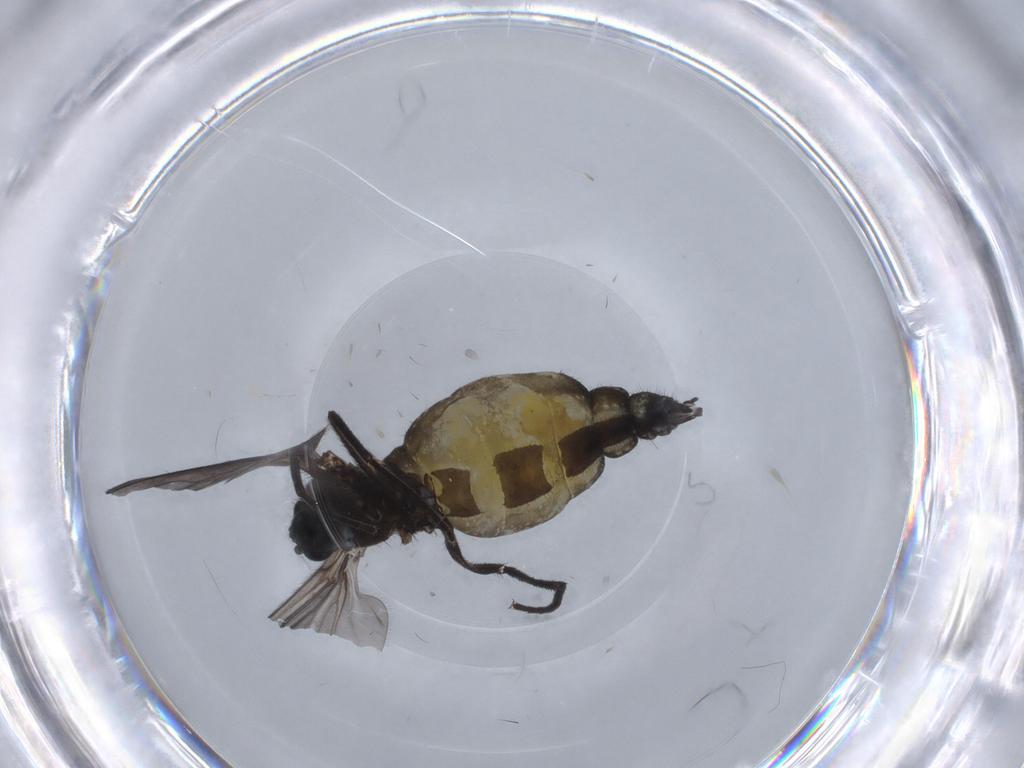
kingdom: Animalia
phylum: Arthropoda
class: Insecta
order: Diptera
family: Sciaridae
